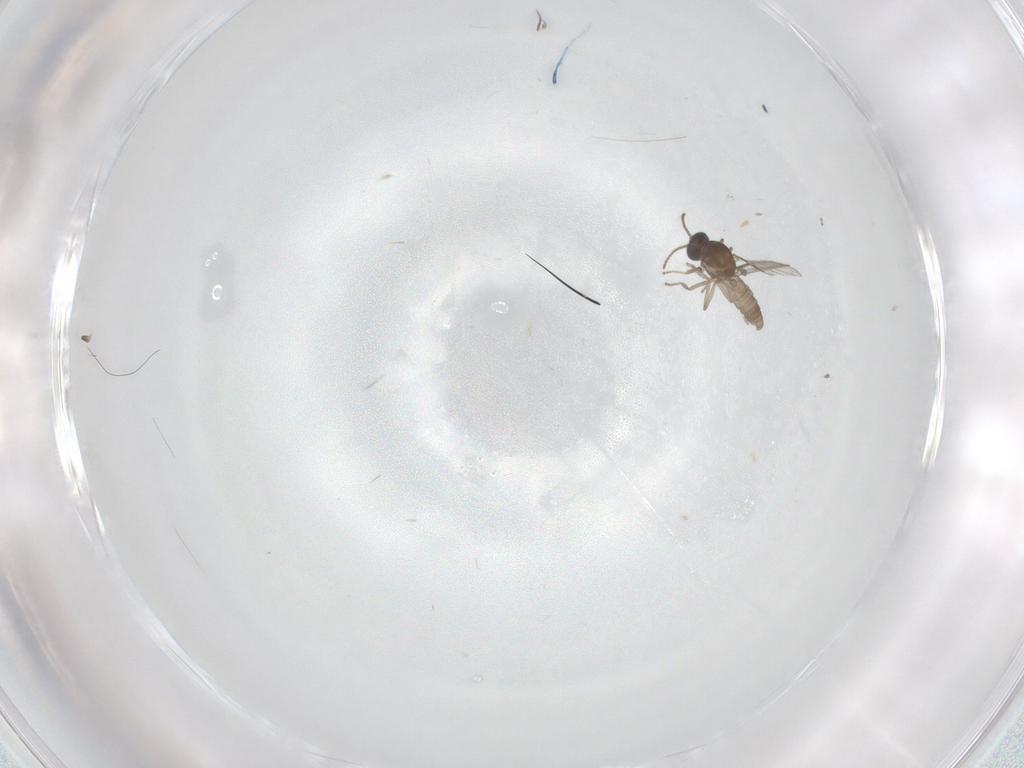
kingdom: Animalia
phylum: Arthropoda
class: Insecta
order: Diptera
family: Ceratopogonidae
